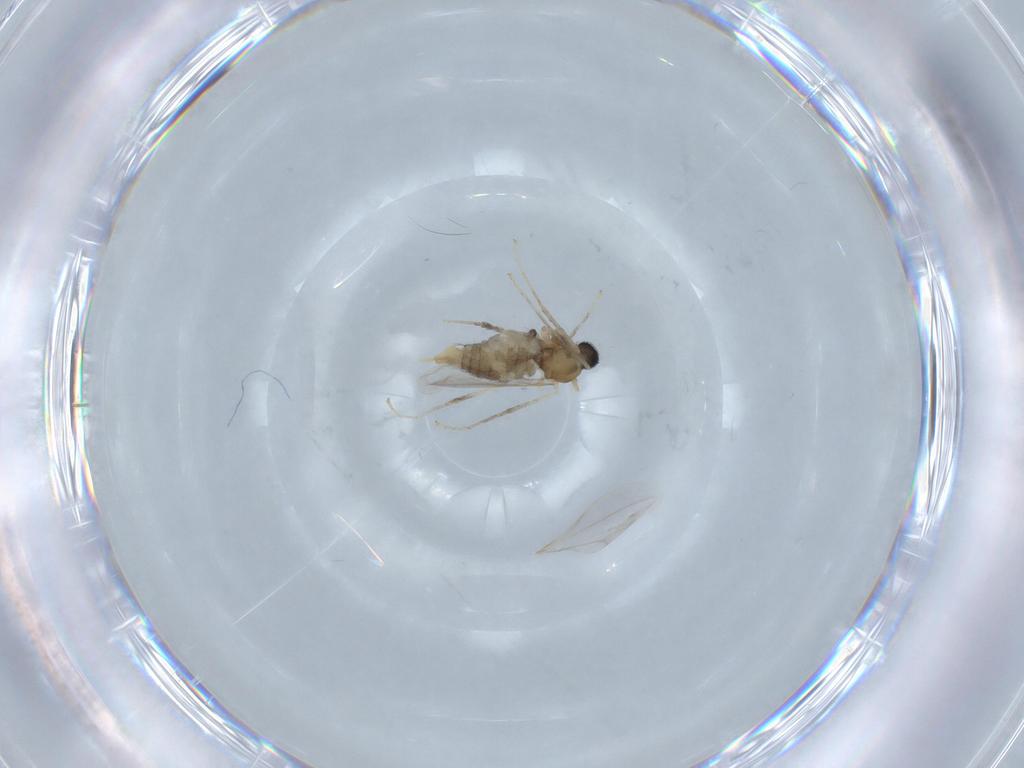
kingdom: Animalia
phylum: Arthropoda
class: Insecta
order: Diptera
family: Cecidomyiidae
